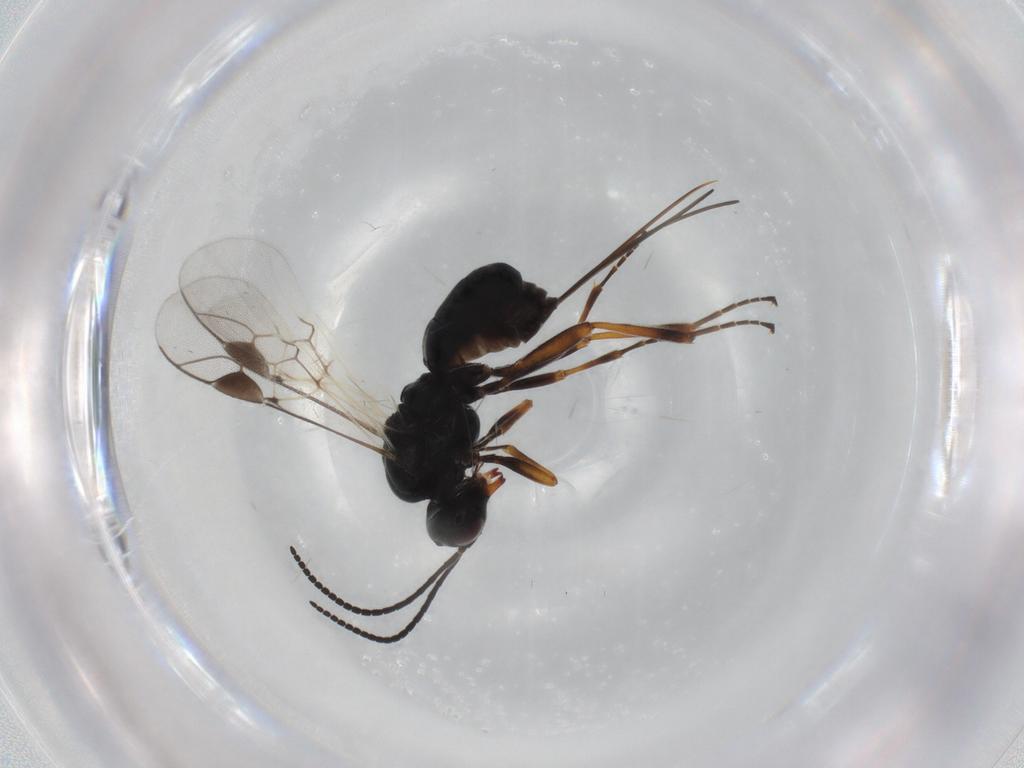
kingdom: Animalia
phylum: Arthropoda
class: Insecta
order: Hymenoptera
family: Braconidae
